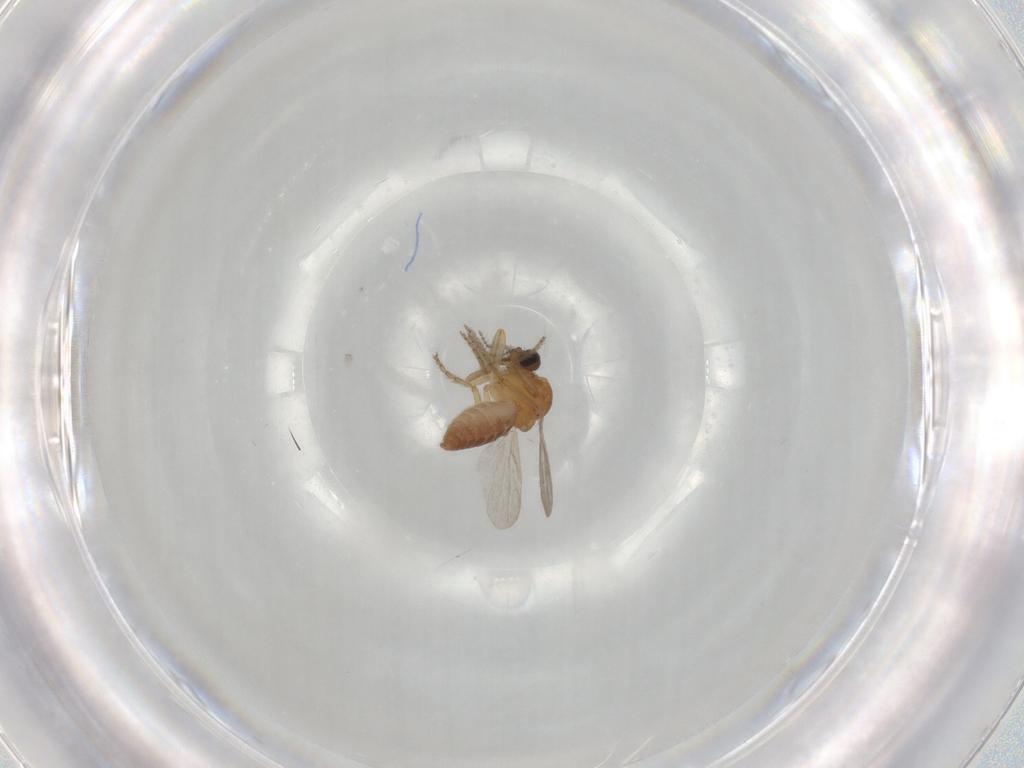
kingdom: Animalia
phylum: Arthropoda
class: Insecta
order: Diptera
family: Ceratopogonidae
